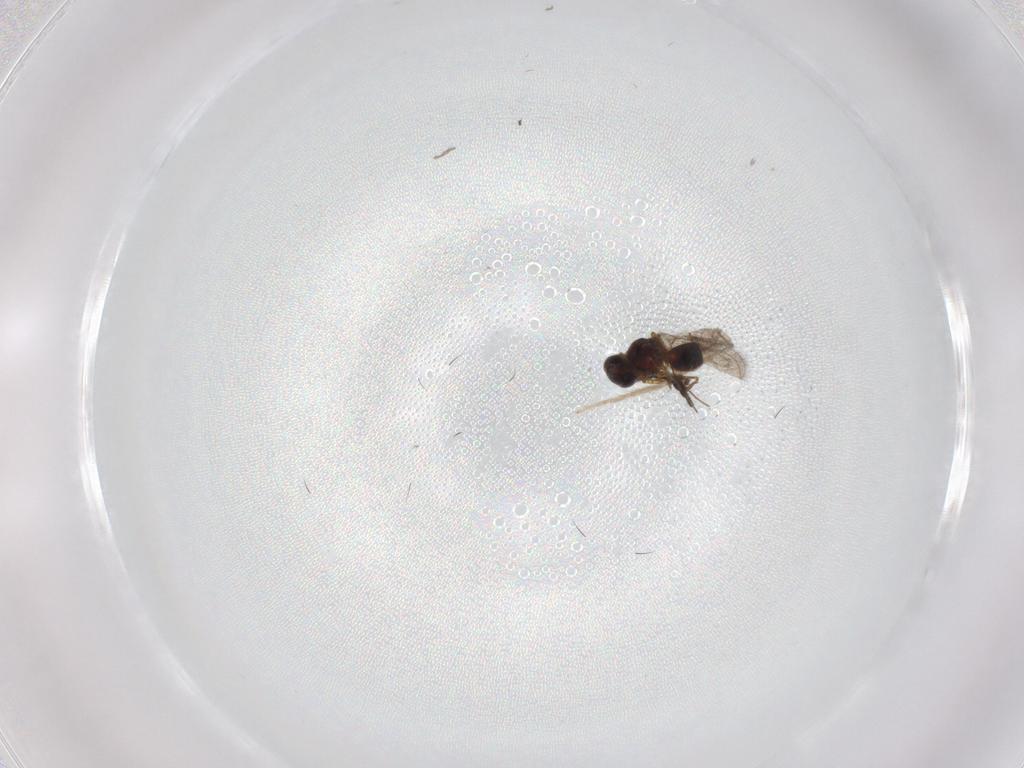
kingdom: Animalia
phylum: Arthropoda
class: Insecta
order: Hymenoptera
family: Figitidae
